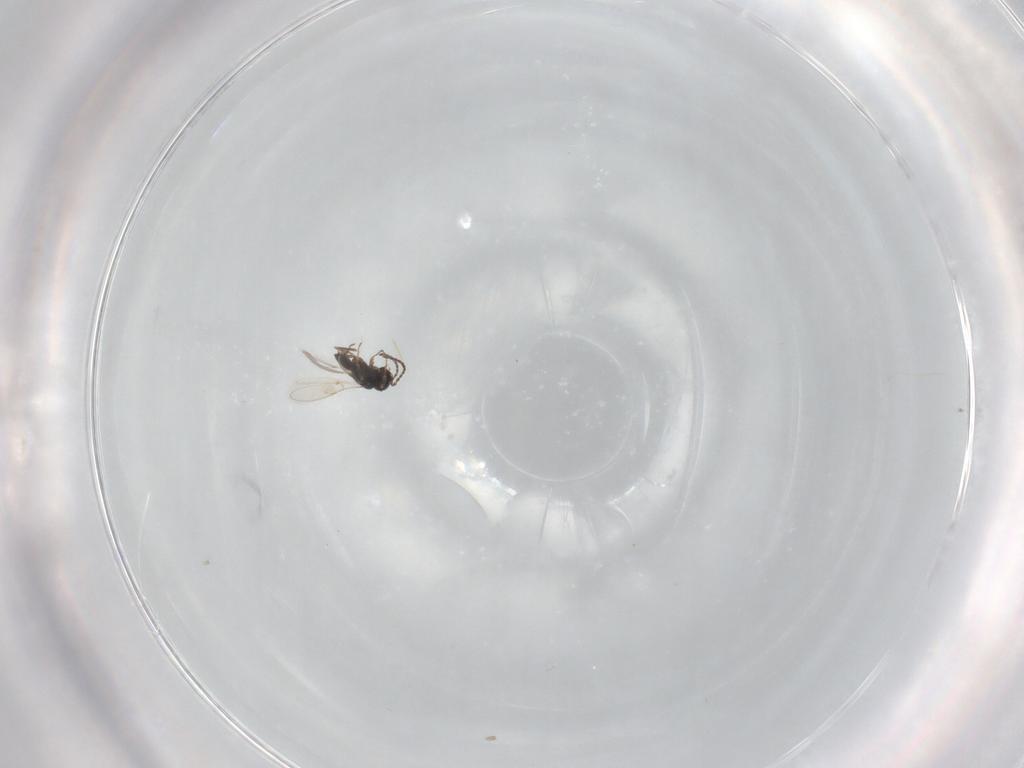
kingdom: Animalia
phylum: Arthropoda
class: Insecta
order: Hymenoptera
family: Scelionidae
